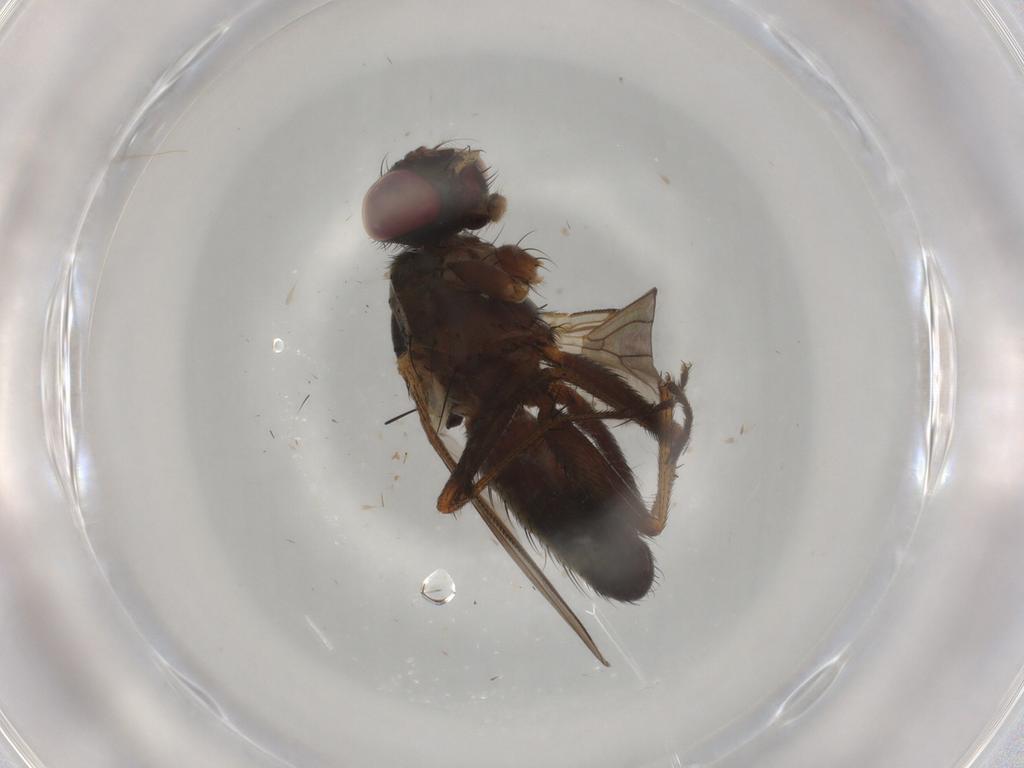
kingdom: Animalia
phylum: Arthropoda
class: Insecta
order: Diptera
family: Muscidae
